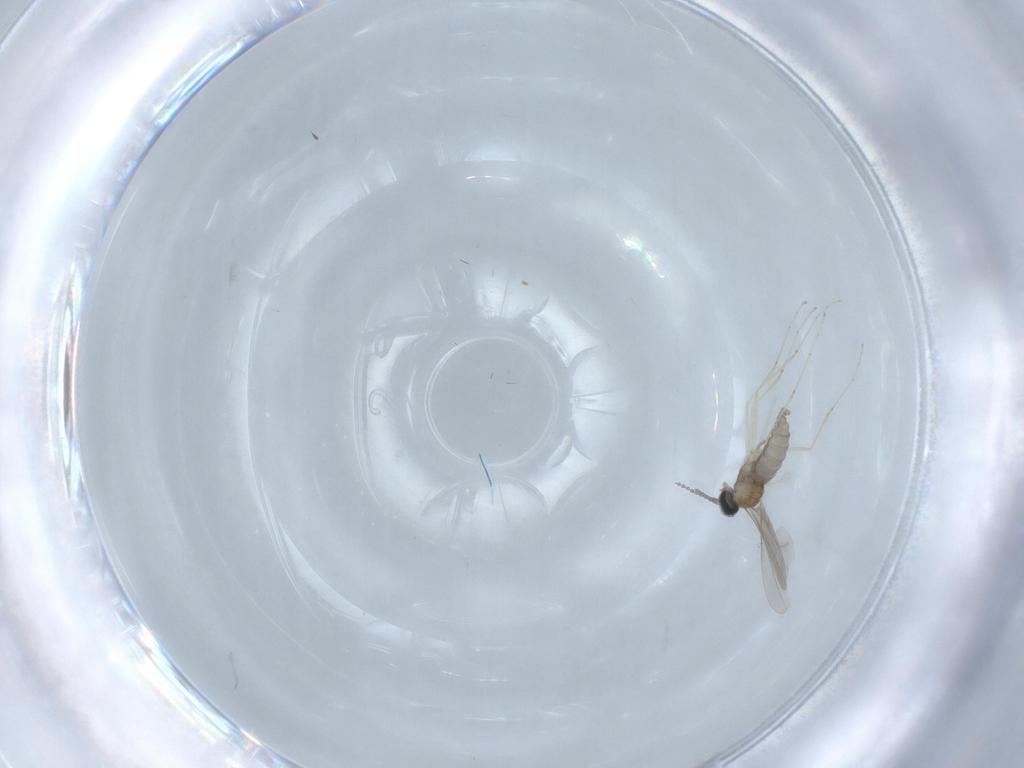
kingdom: Animalia
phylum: Arthropoda
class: Insecta
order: Diptera
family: Cecidomyiidae
